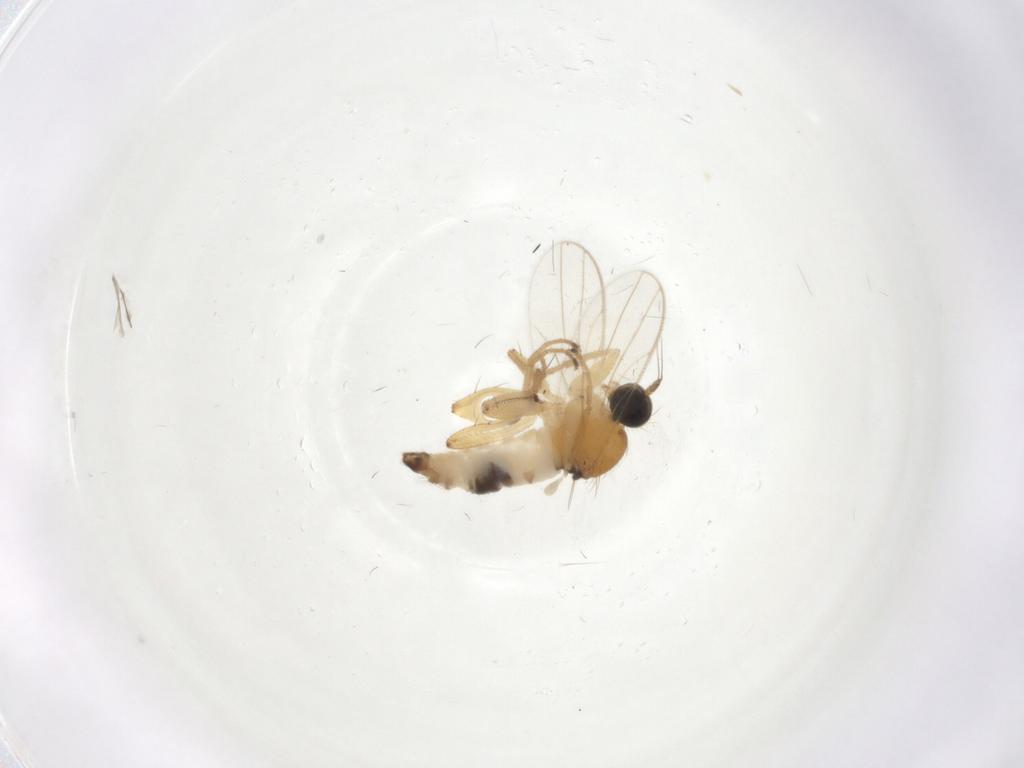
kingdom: Animalia
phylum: Arthropoda
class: Insecta
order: Diptera
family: Hybotidae
